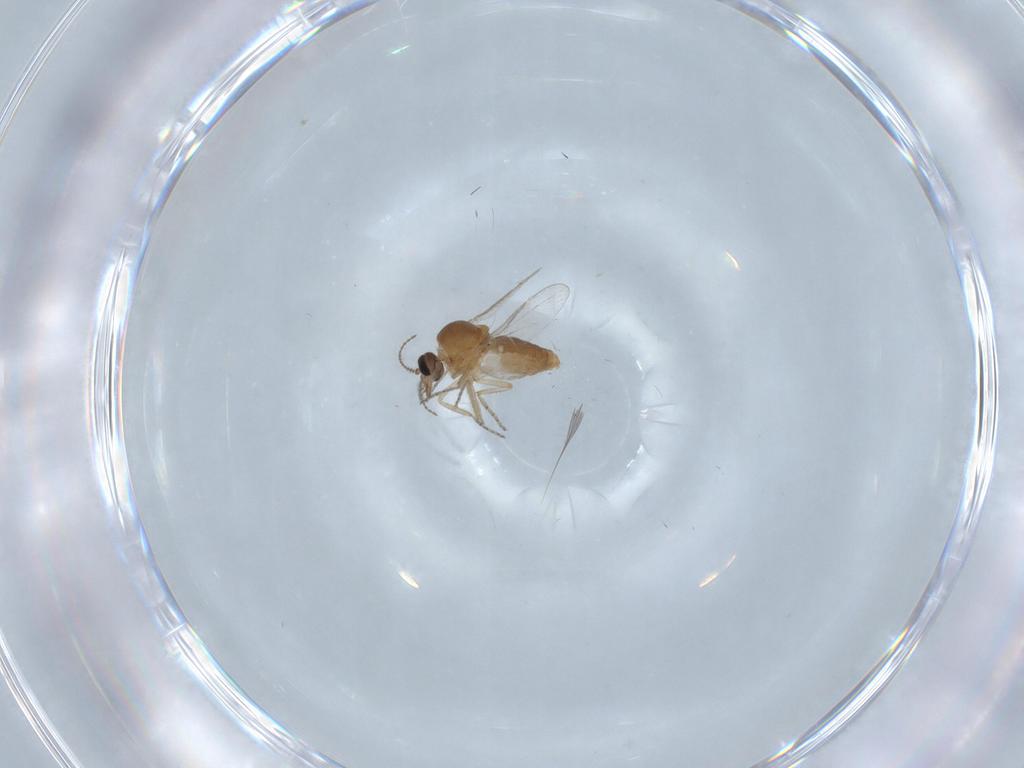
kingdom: Animalia
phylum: Arthropoda
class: Insecta
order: Diptera
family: Ceratopogonidae
